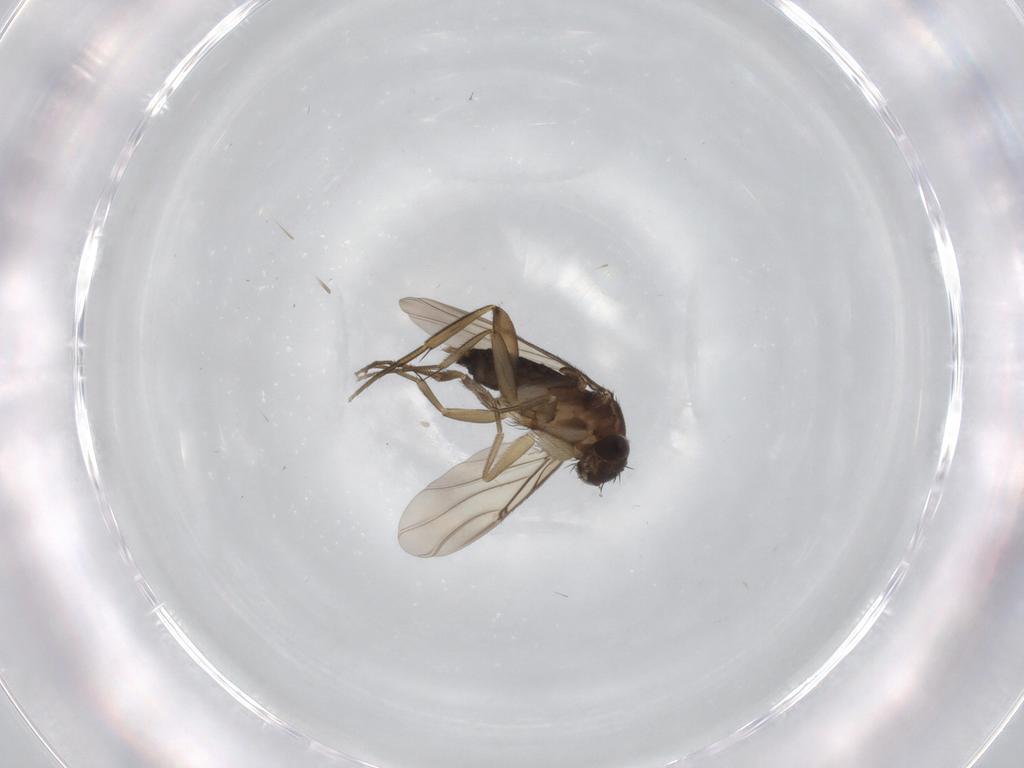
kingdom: Animalia
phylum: Arthropoda
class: Insecta
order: Diptera
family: Phoridae
